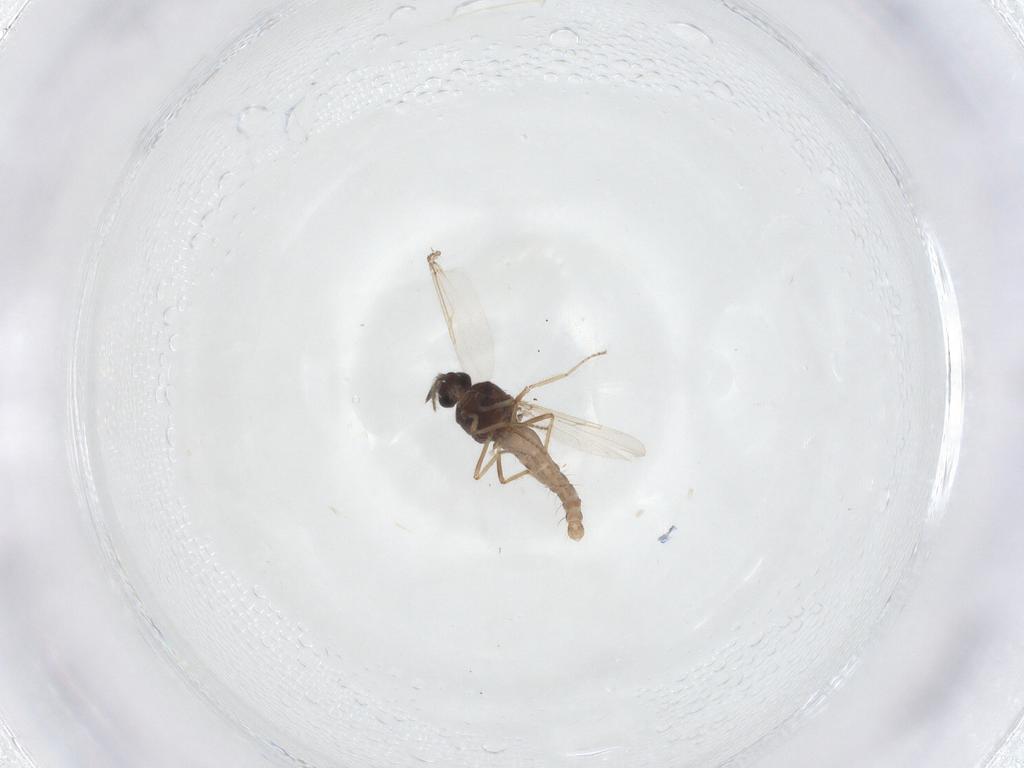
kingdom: Animalia
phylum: Arthropoda
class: Insecta
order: Diptera
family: Ceratopogonidae
